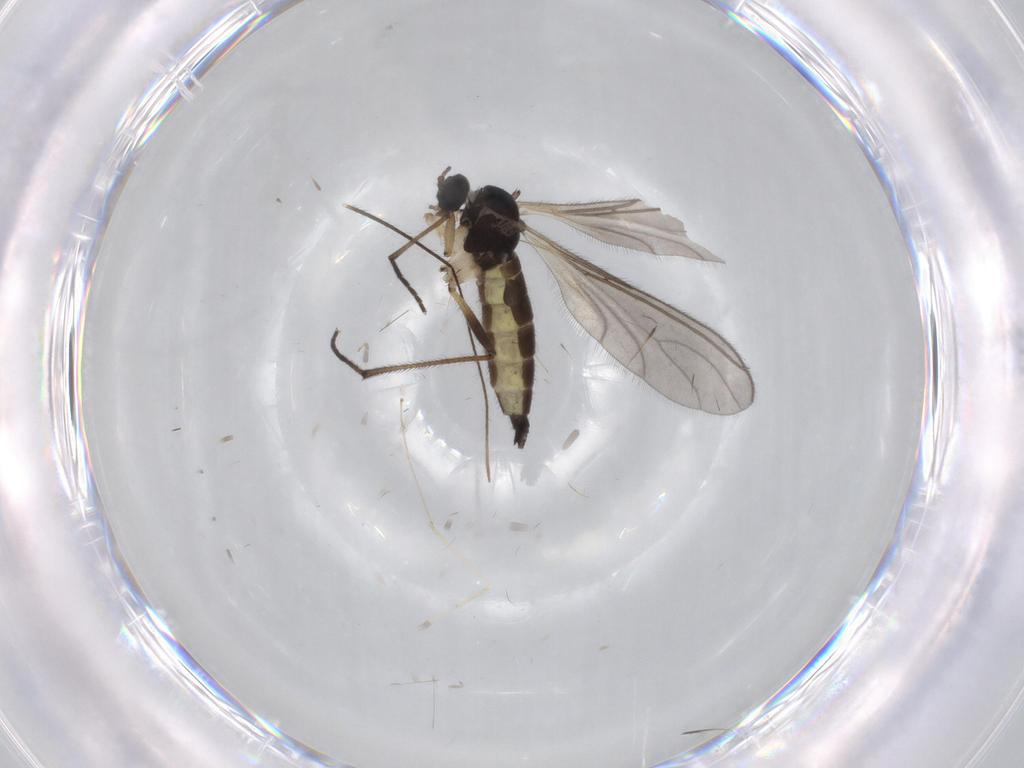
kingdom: Animalia
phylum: Arthropoda
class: Insecta
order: Diptera
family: Sciaridae
